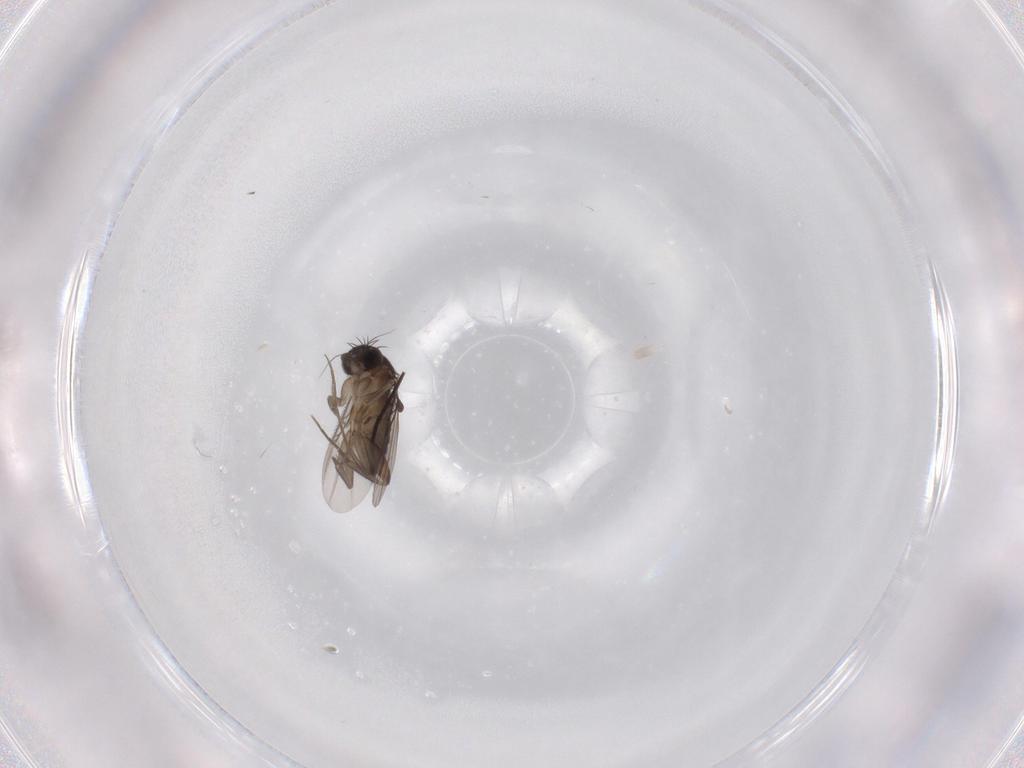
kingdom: Animalia
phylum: Arthropoda
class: Insecta
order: Diptera
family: Phoridae
